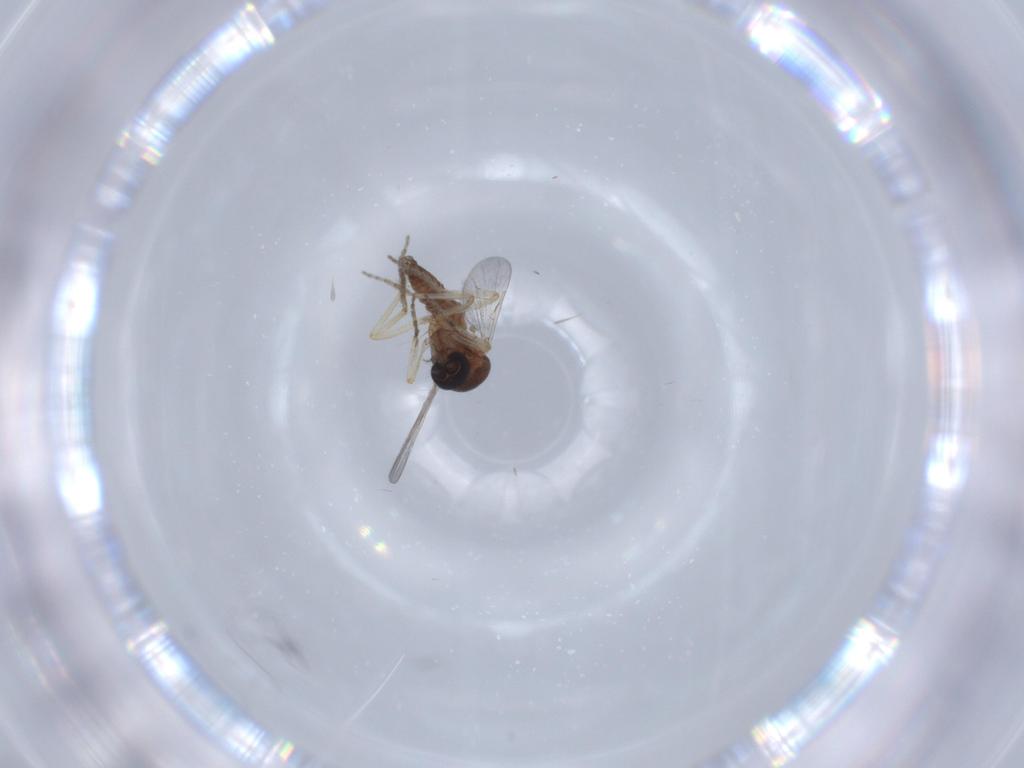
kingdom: Animalia
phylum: Arthropoda
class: Insecta
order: Diptera
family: Ceratopogonidae
